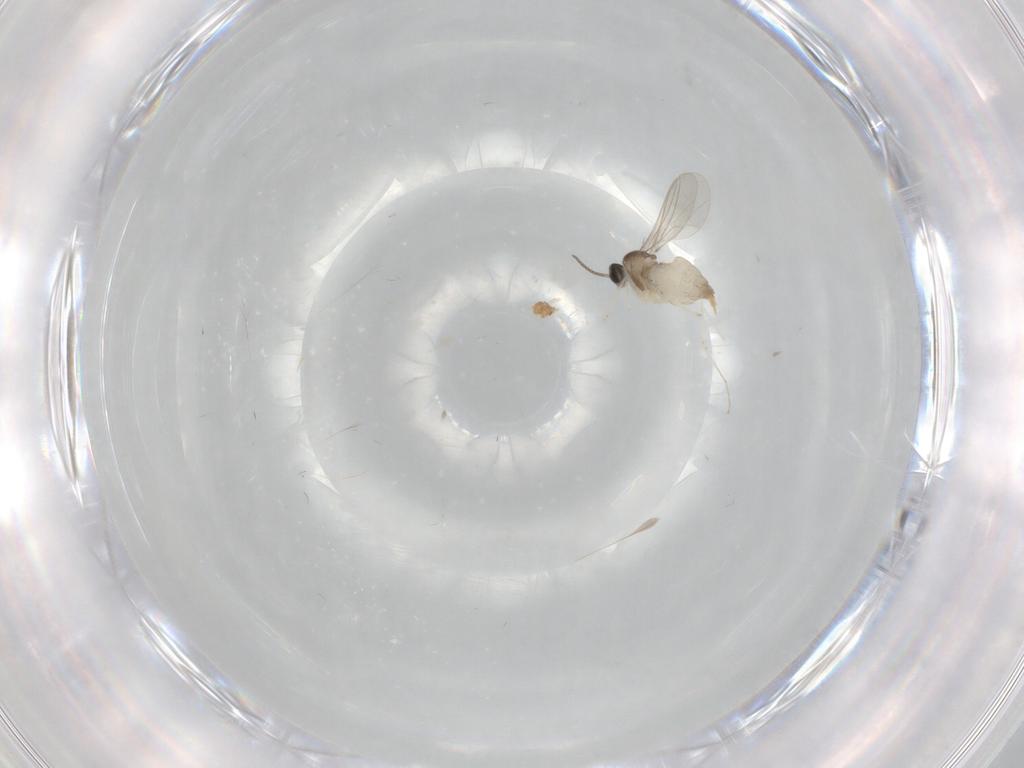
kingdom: Animalia
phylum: Arthropoda
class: Insecta
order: Diptera
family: Cecidomyiidae
